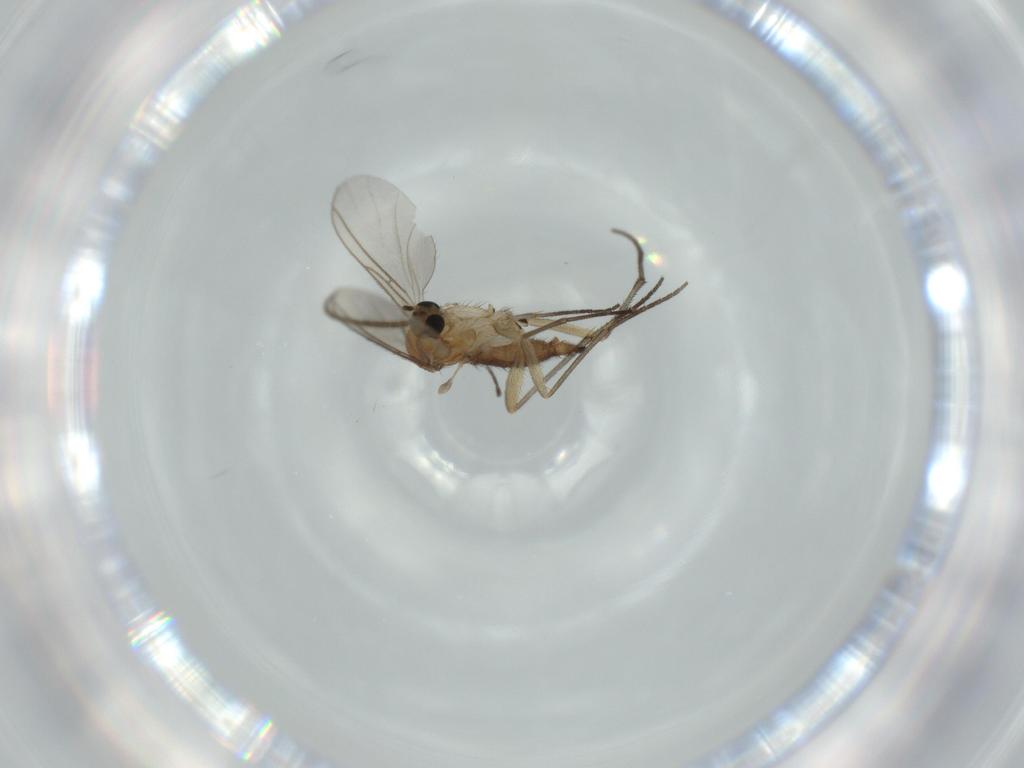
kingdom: Animalia
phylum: Arthropoda
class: Insecta
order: Diptera
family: Sciaridae
